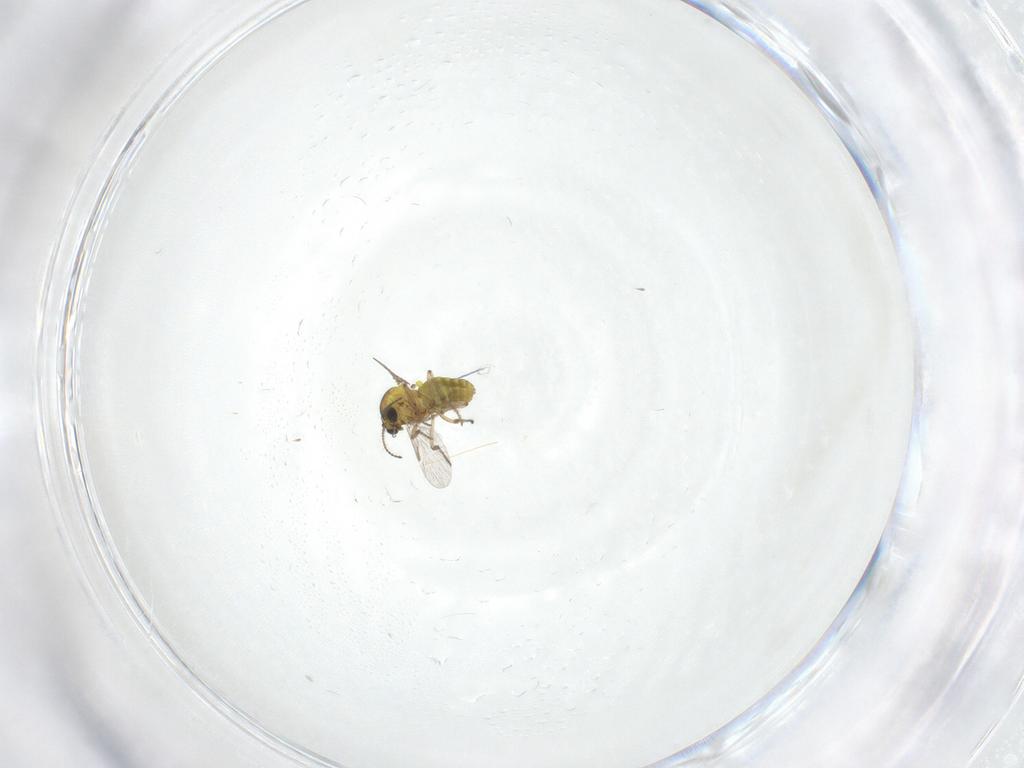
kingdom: Animalia
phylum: Arthropoda
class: Insecta
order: Diptera
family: Ceratopogonidae
